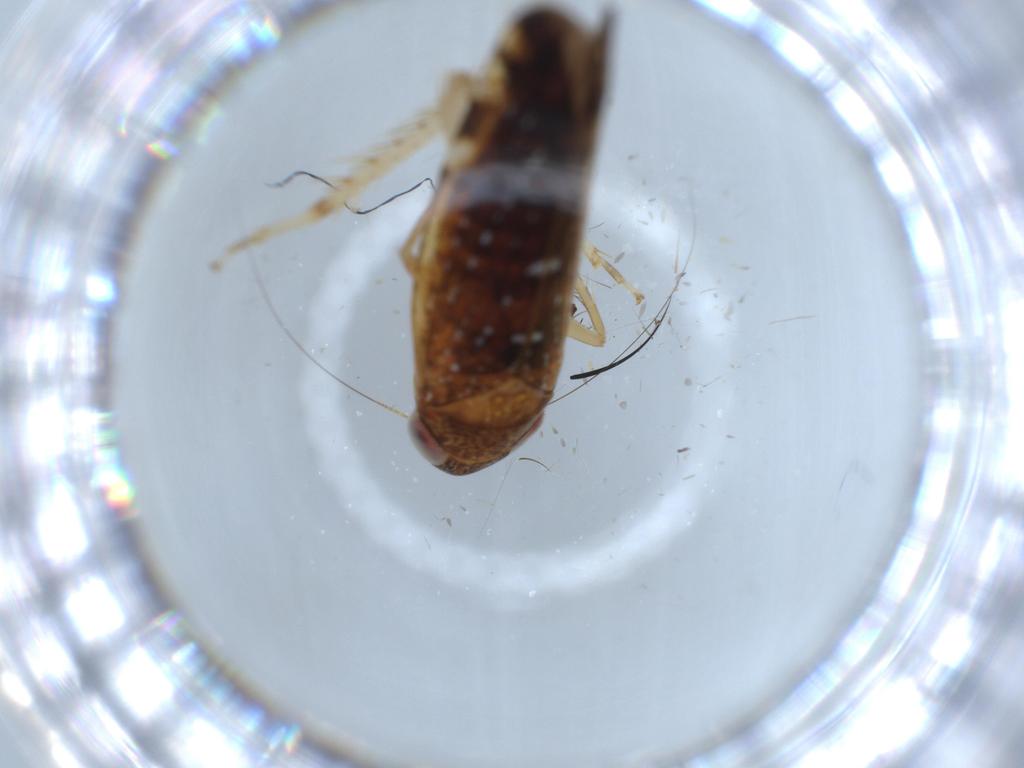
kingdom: Animalia
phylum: Arthropoda
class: Insecta
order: Hemiptera
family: Cicadellidae
